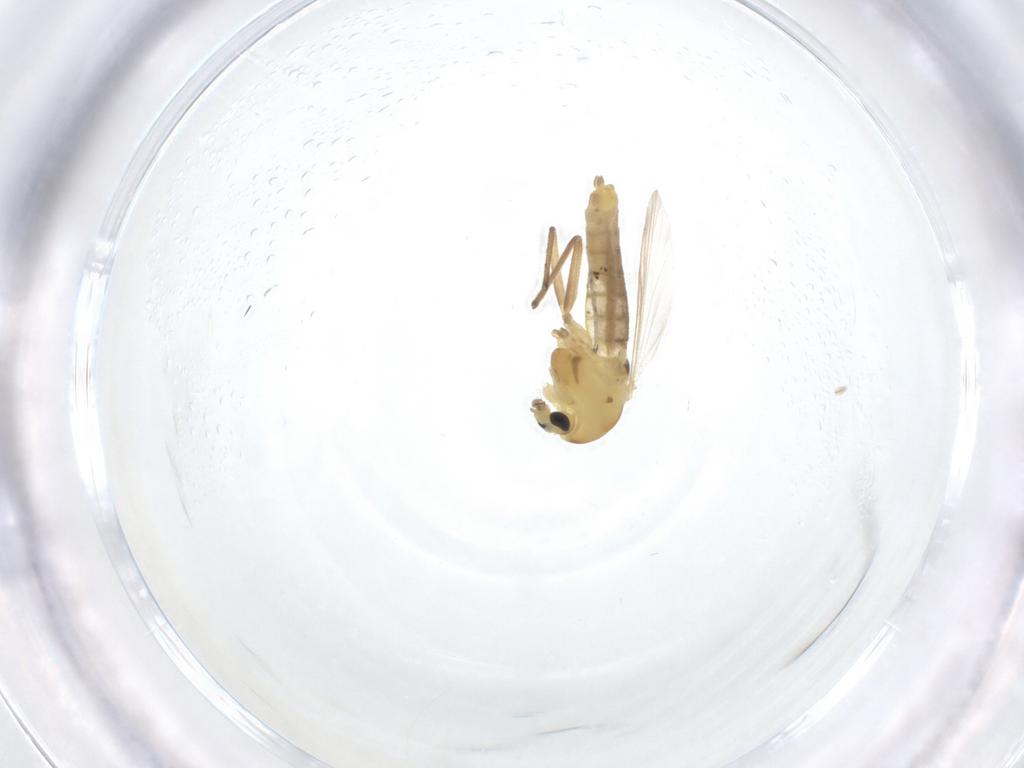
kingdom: Animalia
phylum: Arthropoda
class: Insecta
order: Diptera
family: Chironomidae
